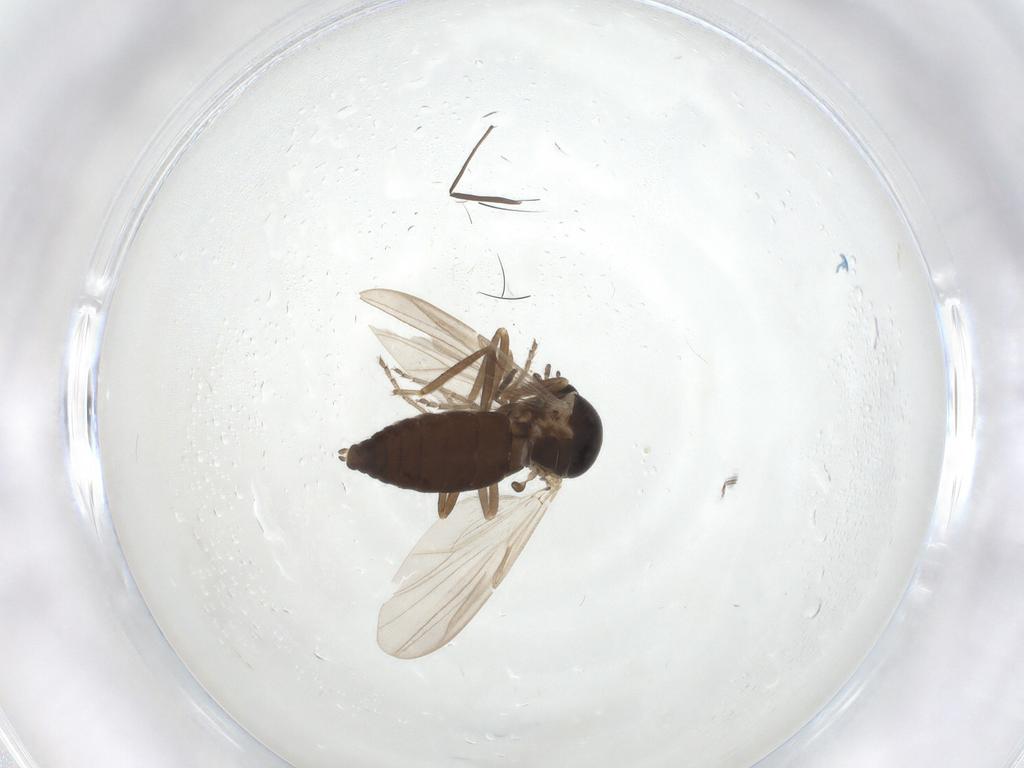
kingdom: Animalia
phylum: Arthropoda
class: Insecta
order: Diptera
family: Ceratopogonidae
